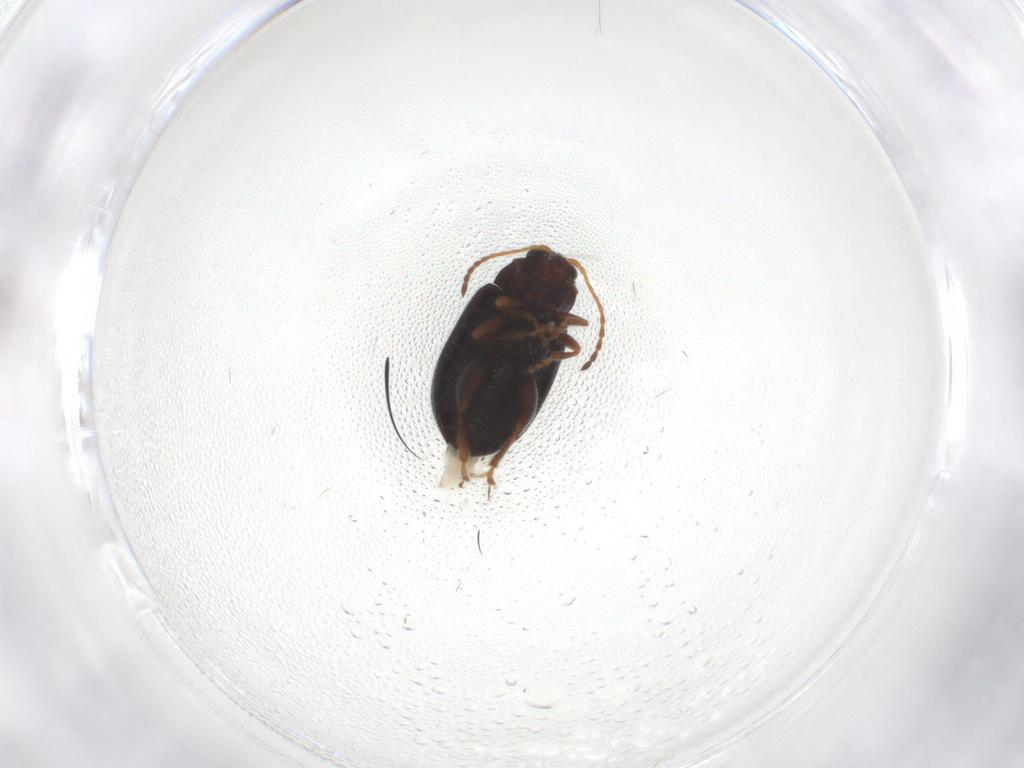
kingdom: Animalia
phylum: Arthropoda
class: Insecta
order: Coleoptera
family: Chrysomelidae
